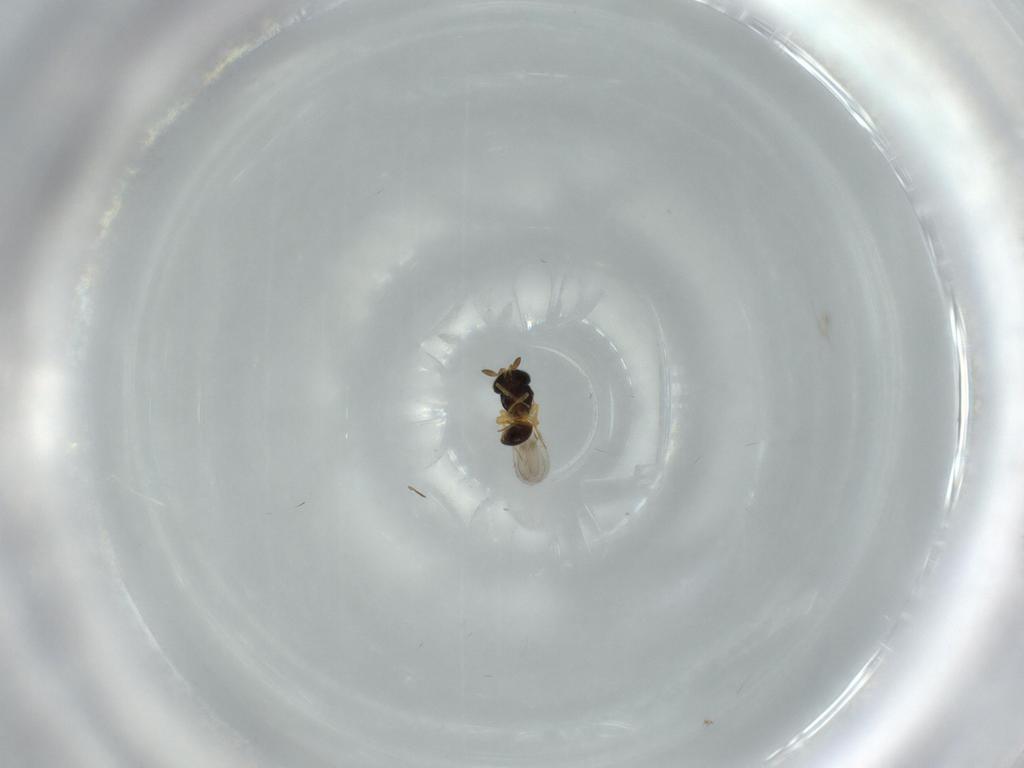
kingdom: Animalia
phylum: Arthropoda
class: Insecta
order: Hymenoptera
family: Scelionidae
